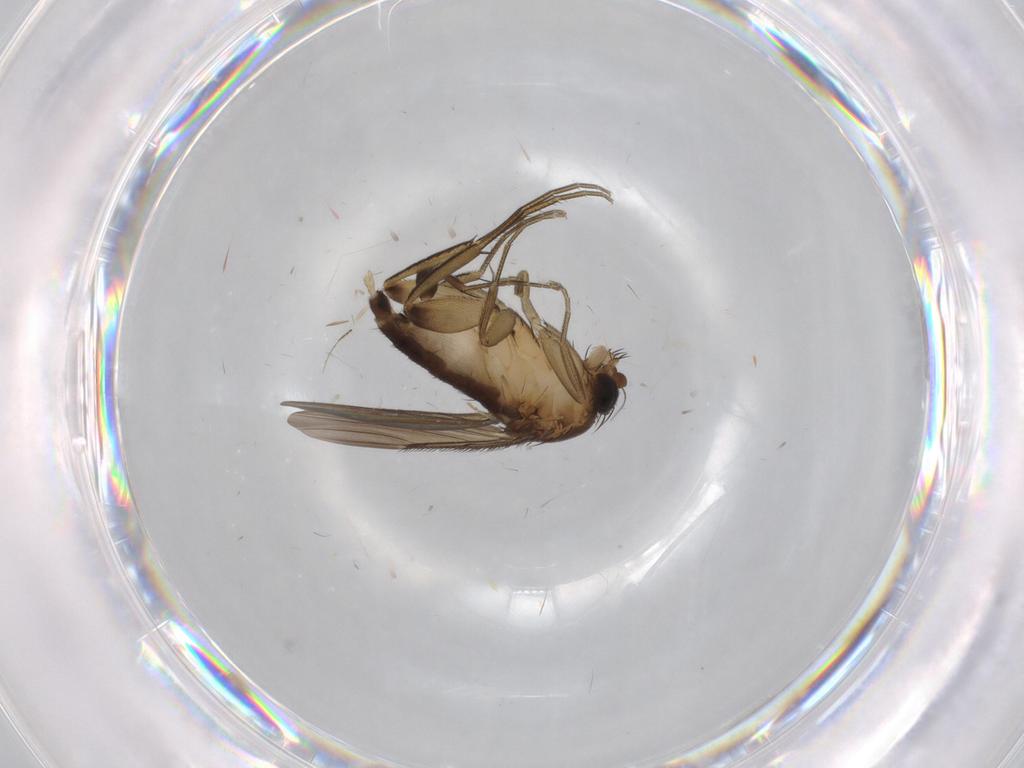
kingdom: Animalia
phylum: Arthropoda
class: Insecta
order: Diptera
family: Phoridae
